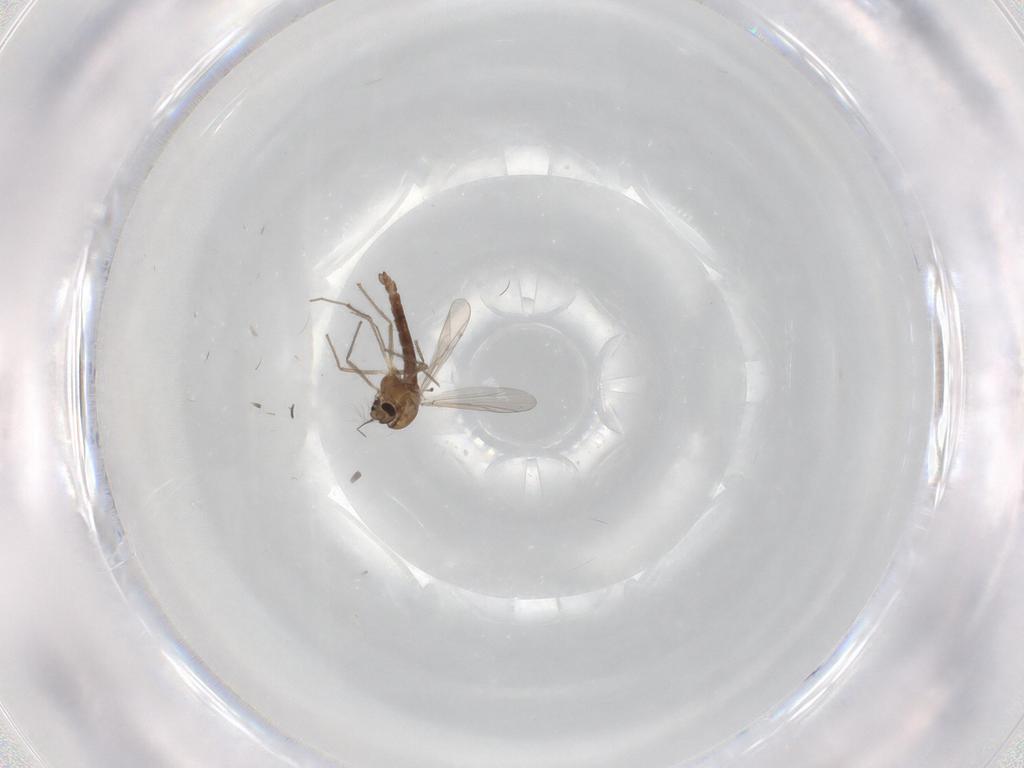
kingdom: Animalia
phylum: Arthropoda
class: Insecta
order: Diptera
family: Chironomidae
